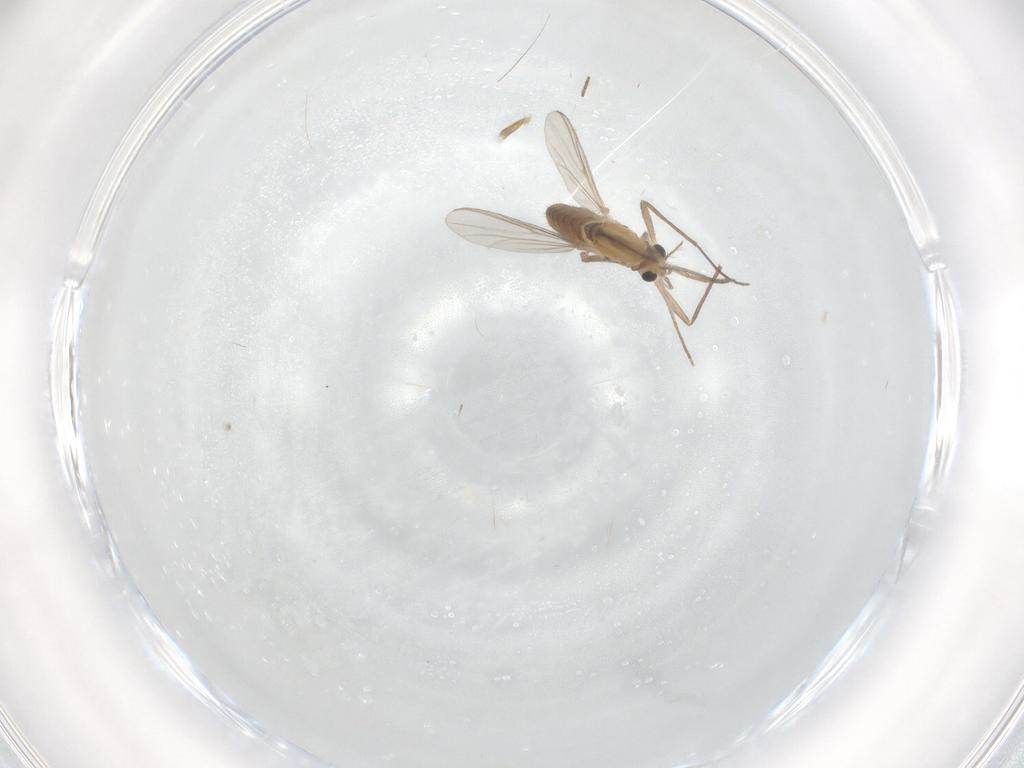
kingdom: Animalia
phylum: Arthropoda
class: Insecta
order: Diptera
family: Chironomidae
